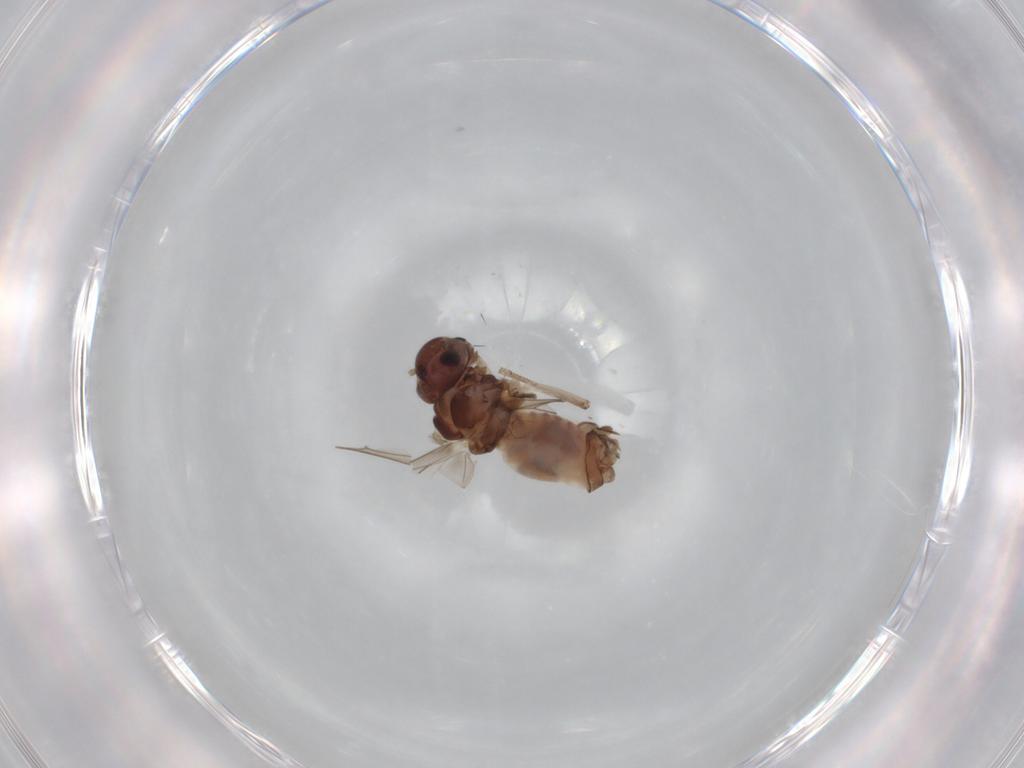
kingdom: Animalia
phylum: Arthropoda
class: Insecta
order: Psocodea
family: Peripsocidae
